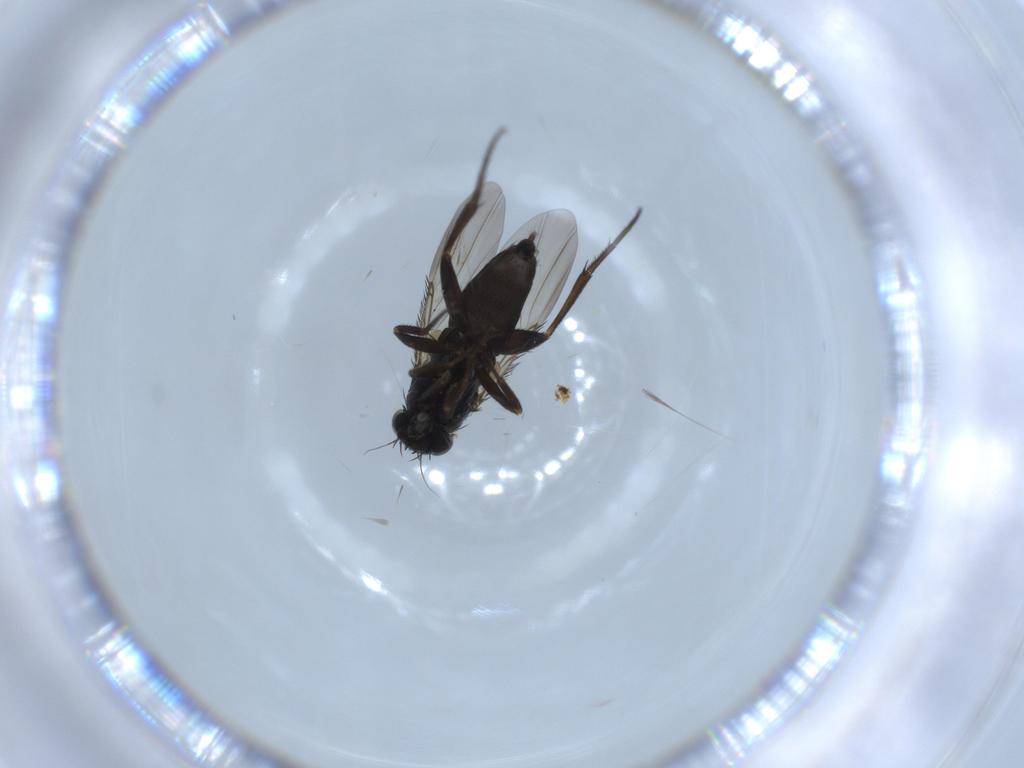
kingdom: Animalia
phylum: Arthropoda
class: Insecta
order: Diptera
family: Phoridae
